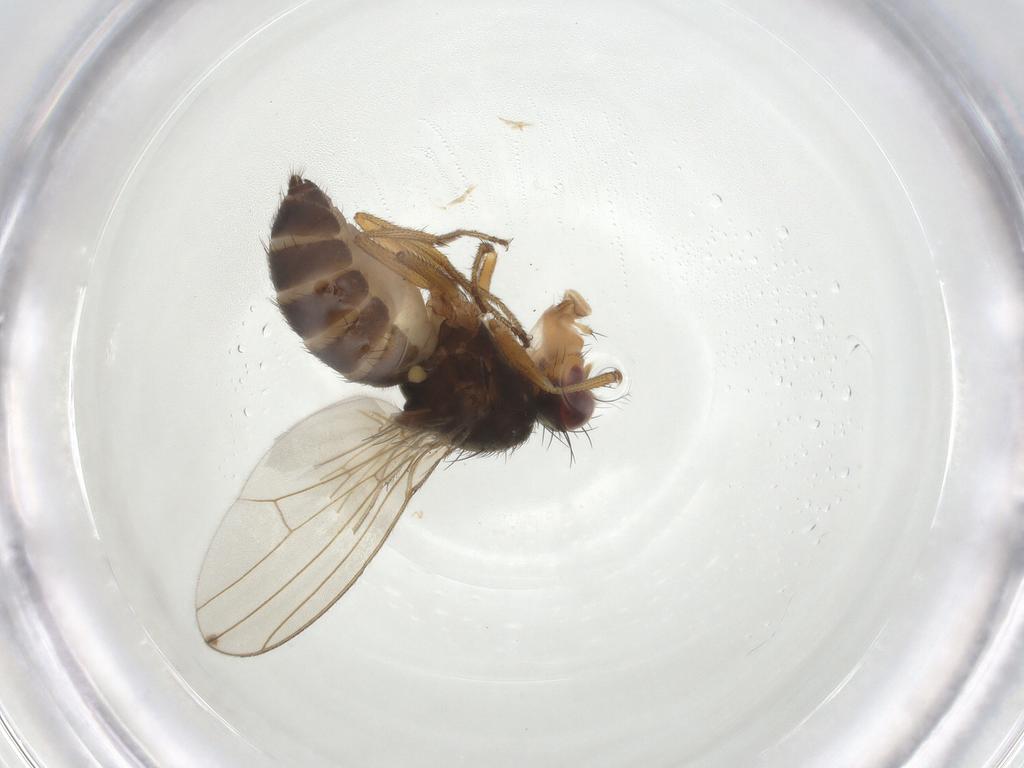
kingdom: Animalia
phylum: Arthropoda
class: Insecta
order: Diptera
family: Drosophilidae
